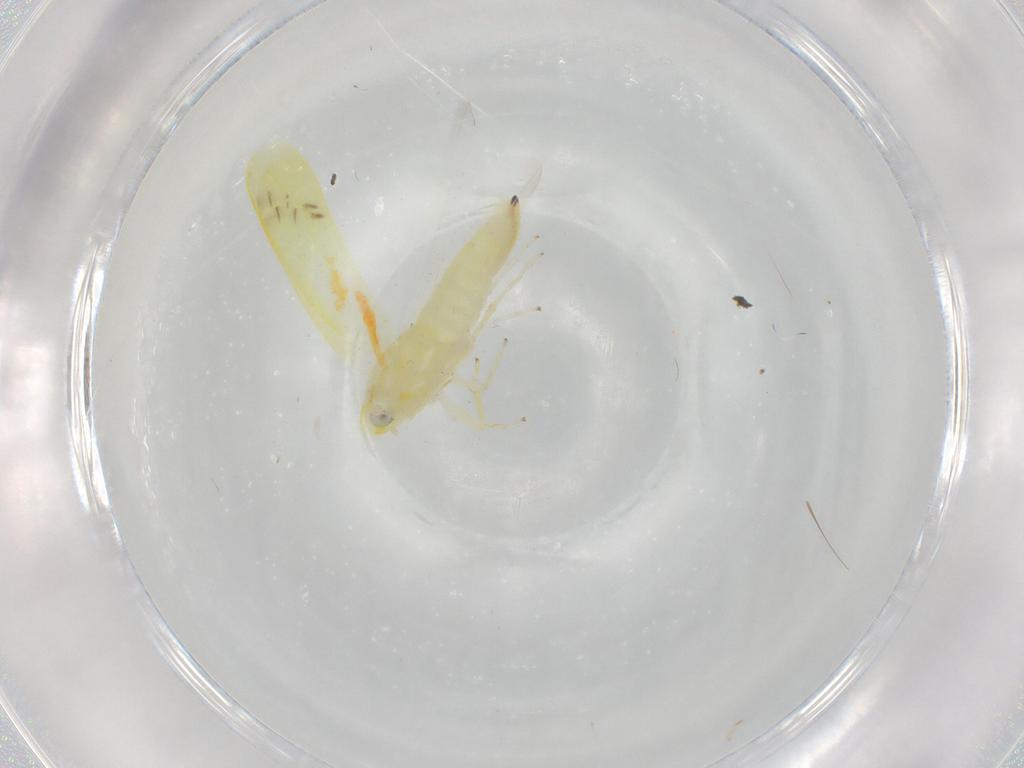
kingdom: Animalia
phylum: Arthropoda
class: Insecta
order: Hemiptera
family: Cicadellidae
